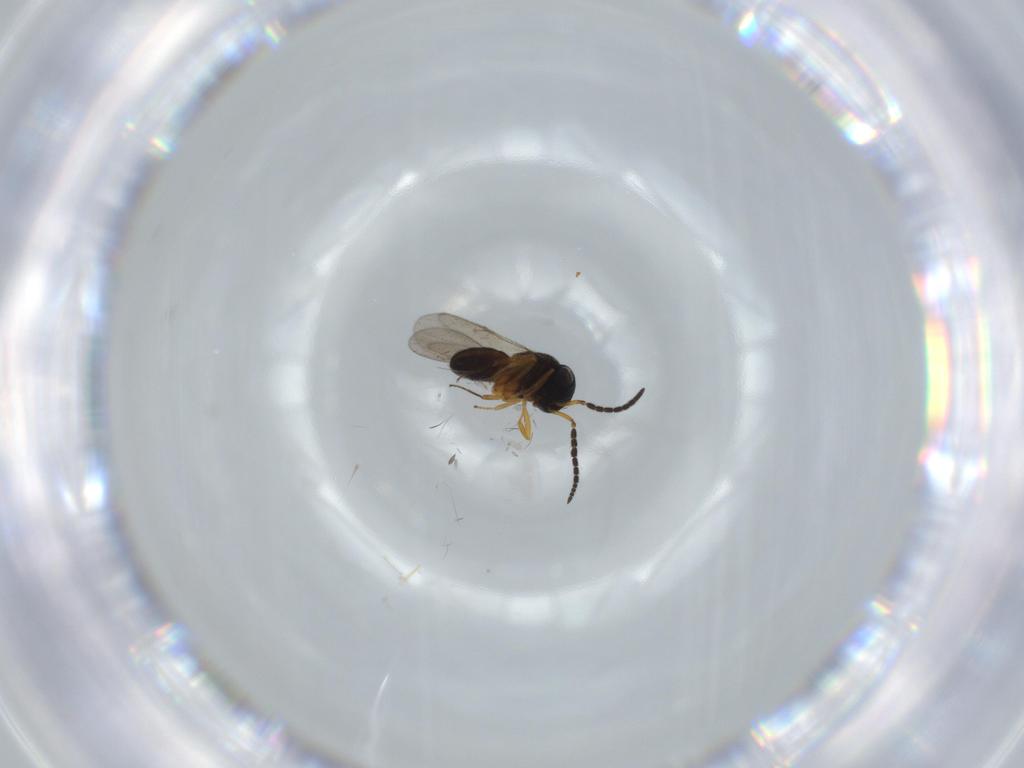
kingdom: Animalia
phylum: Arthropoda
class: Insecta
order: Hymenoptera
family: Scelionidae
